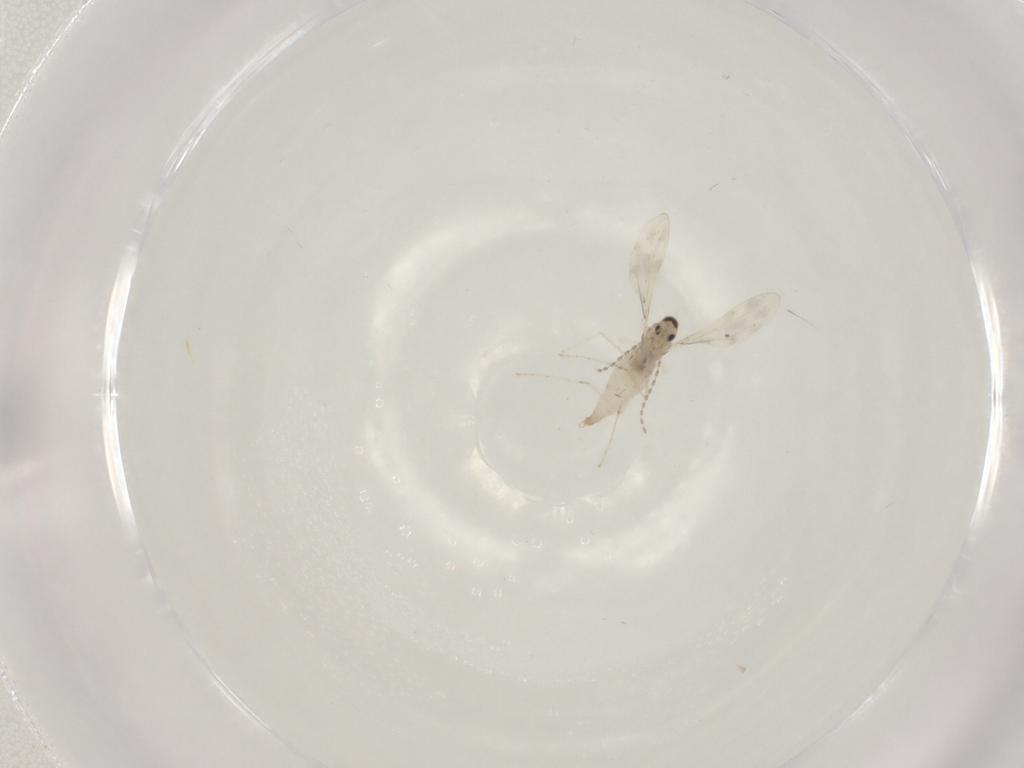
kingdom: Animalia
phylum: Arthropoda
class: Insecta
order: Diptera
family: Cecidomyiidae
